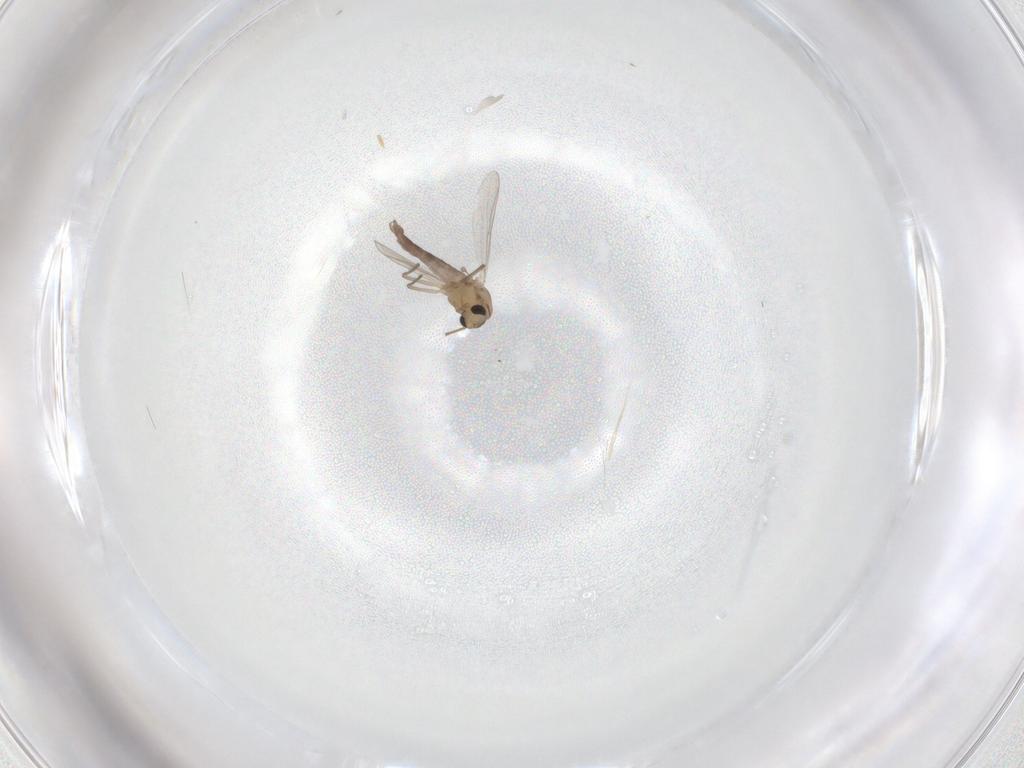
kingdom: Animalia
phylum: Arthropoda
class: Insecta
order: Diptera
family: Chironomidae
